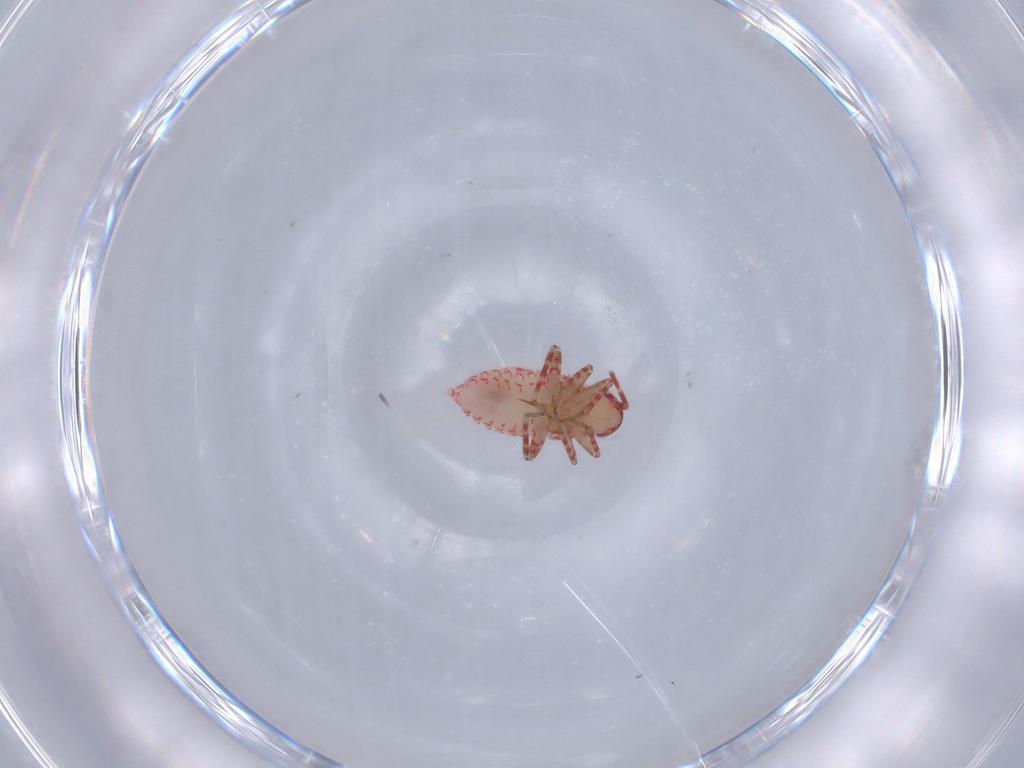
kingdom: Animalia
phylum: Arthropoda
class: Insecta
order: Hemiptera
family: Miridae
